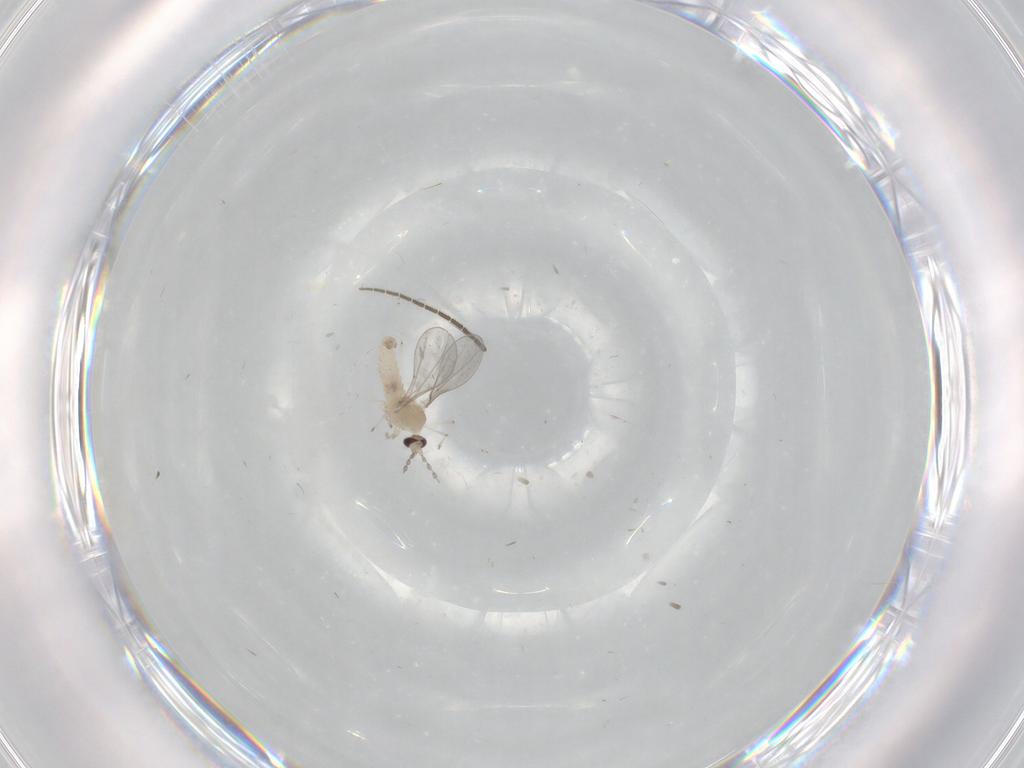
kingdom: Animalia
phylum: Arthropoda
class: Insecta
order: Diptera
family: Cecidomyiidae
